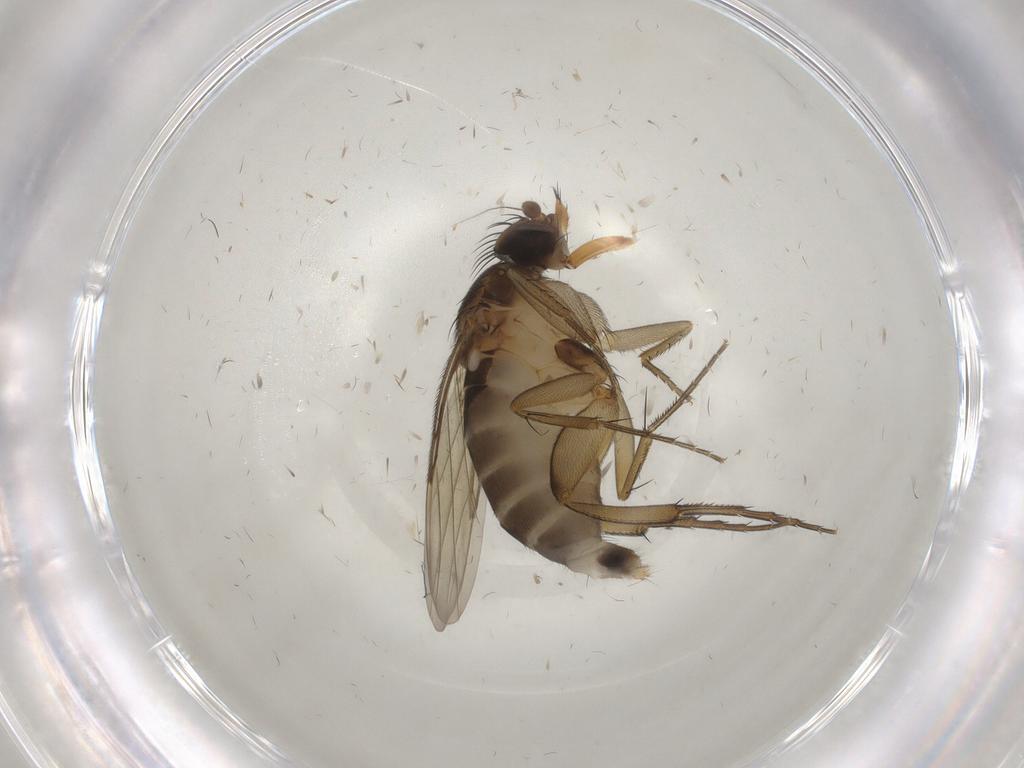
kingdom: Animalia
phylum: Arthropoda
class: Insecta
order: Diptera
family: Phoridae
